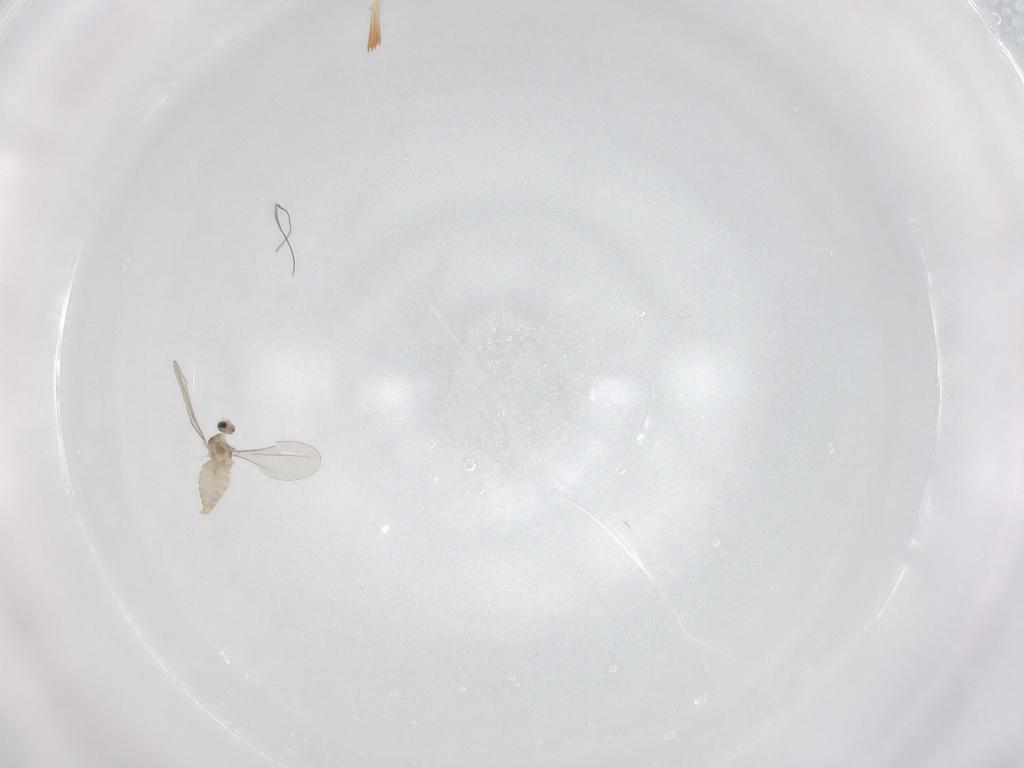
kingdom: Animalia
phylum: Arthropoda
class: Insecta
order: Diptera
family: Cecidomyiidae
